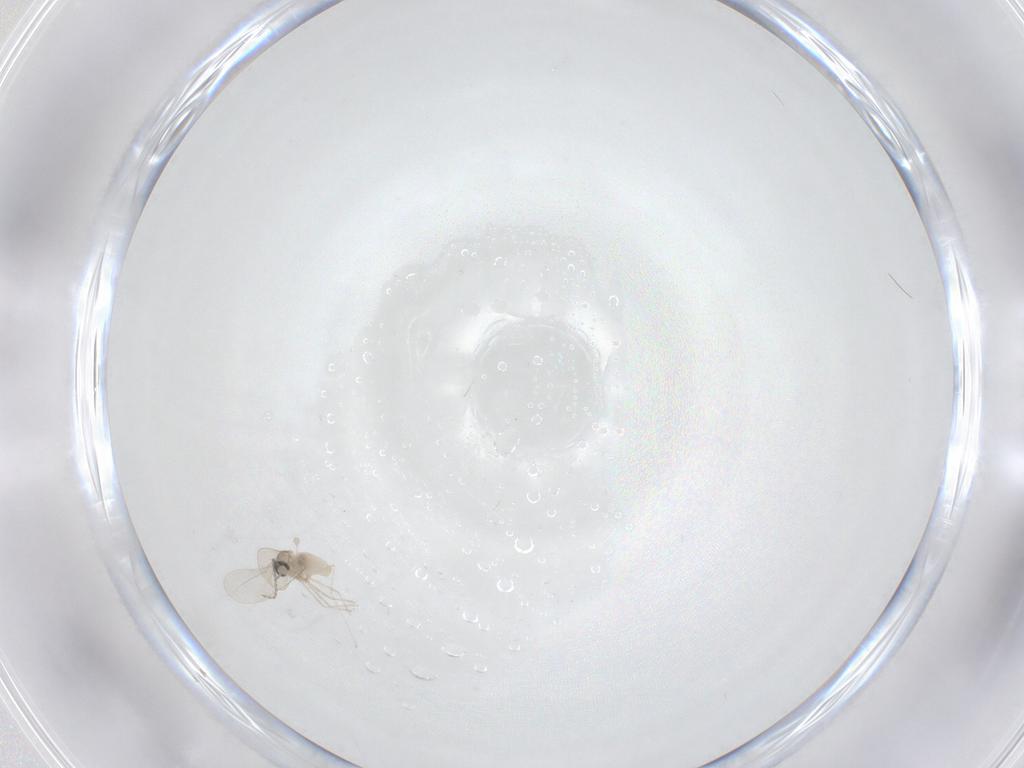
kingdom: Animalia
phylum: Arthropoda
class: Insecta
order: Diptera
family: Cecidomyiidae
